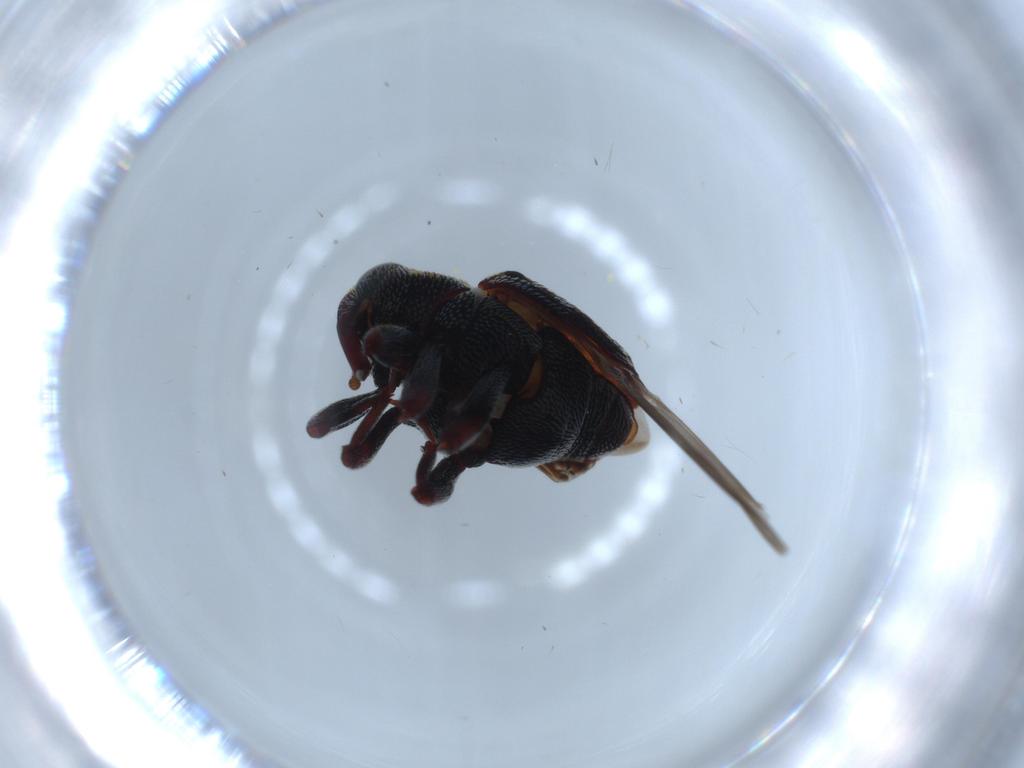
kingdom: Animalia
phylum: Arthropoda
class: Insecta
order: Coleoptera
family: Curculionidae
